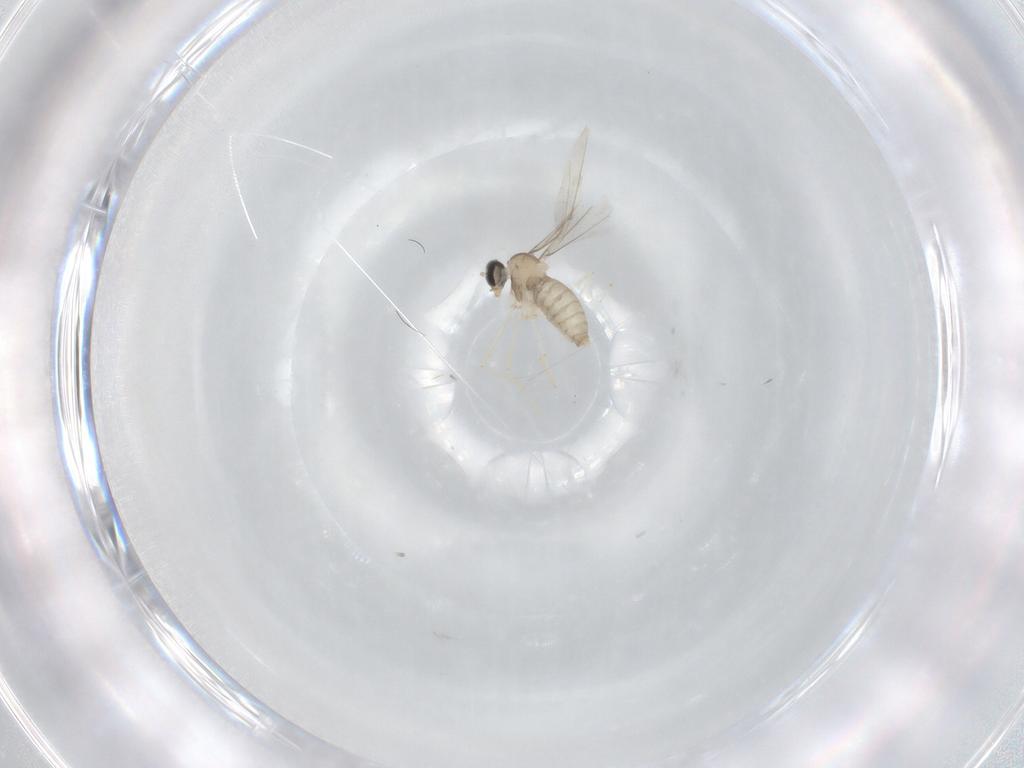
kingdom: Animalia
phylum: Arthropoda
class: Insecta
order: Diptera
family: Cecidomyiidae
